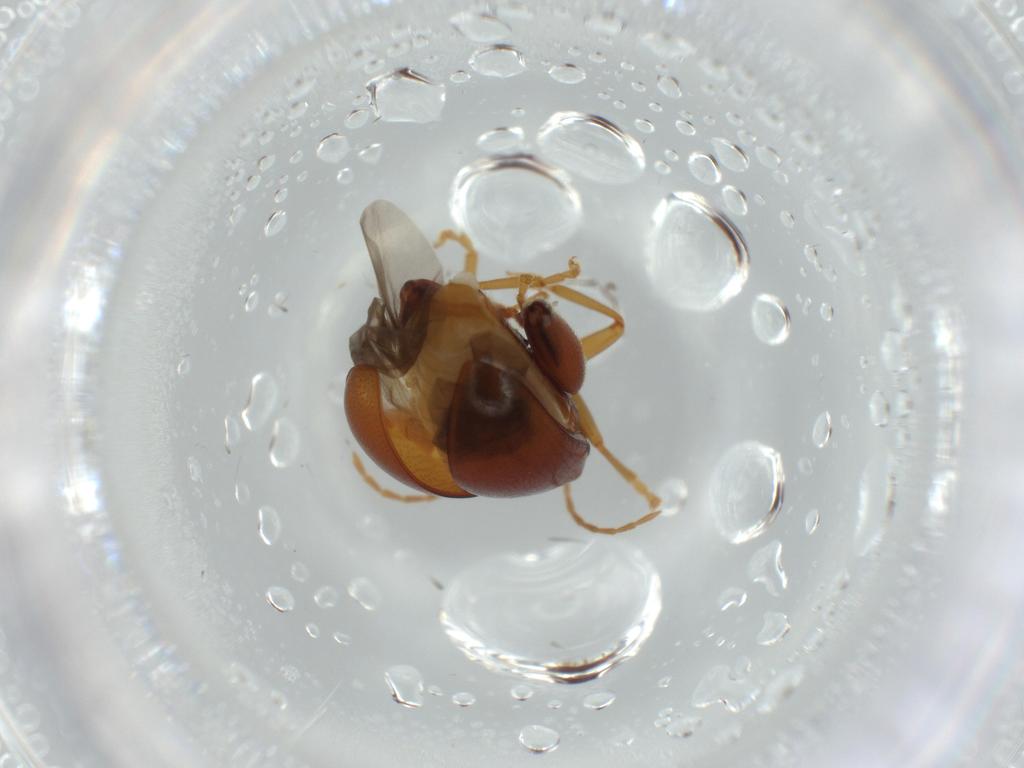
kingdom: Animalia
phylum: Arthropoda
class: Insecta
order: Coleoptera
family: Chrysomelidae
